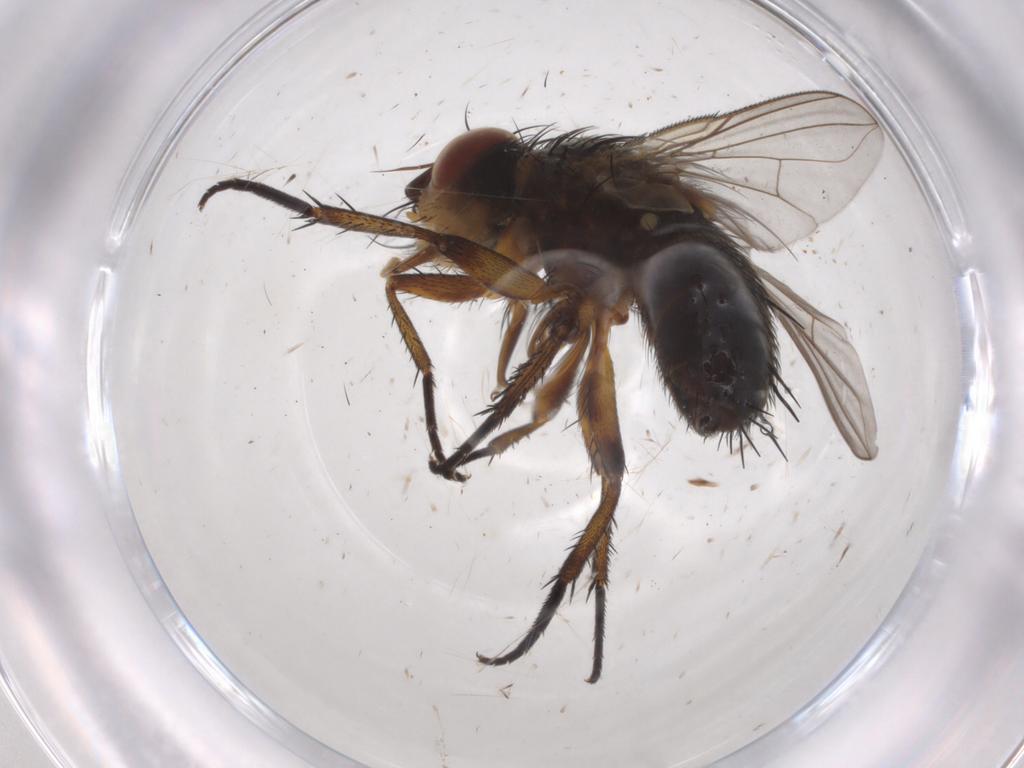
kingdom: Animalia
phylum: Arthropoda
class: Insecta
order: Diptera
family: Tachinidae
